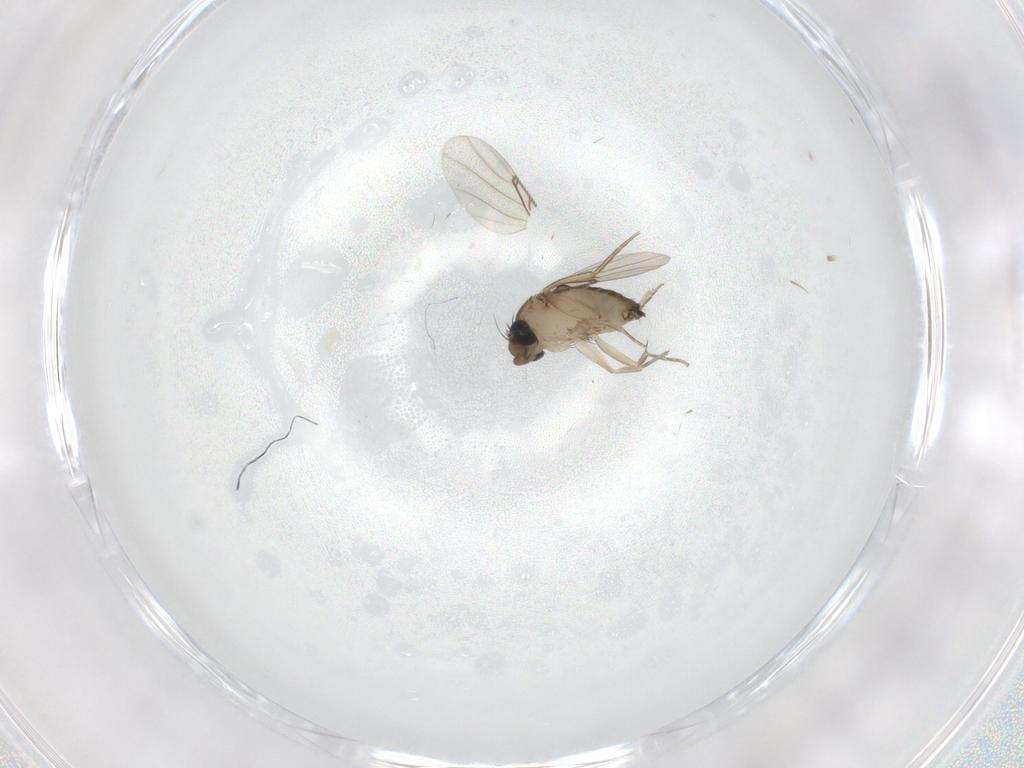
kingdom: Animalia
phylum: Arthropoda
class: Insecta
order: Diptera
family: Phoridae
